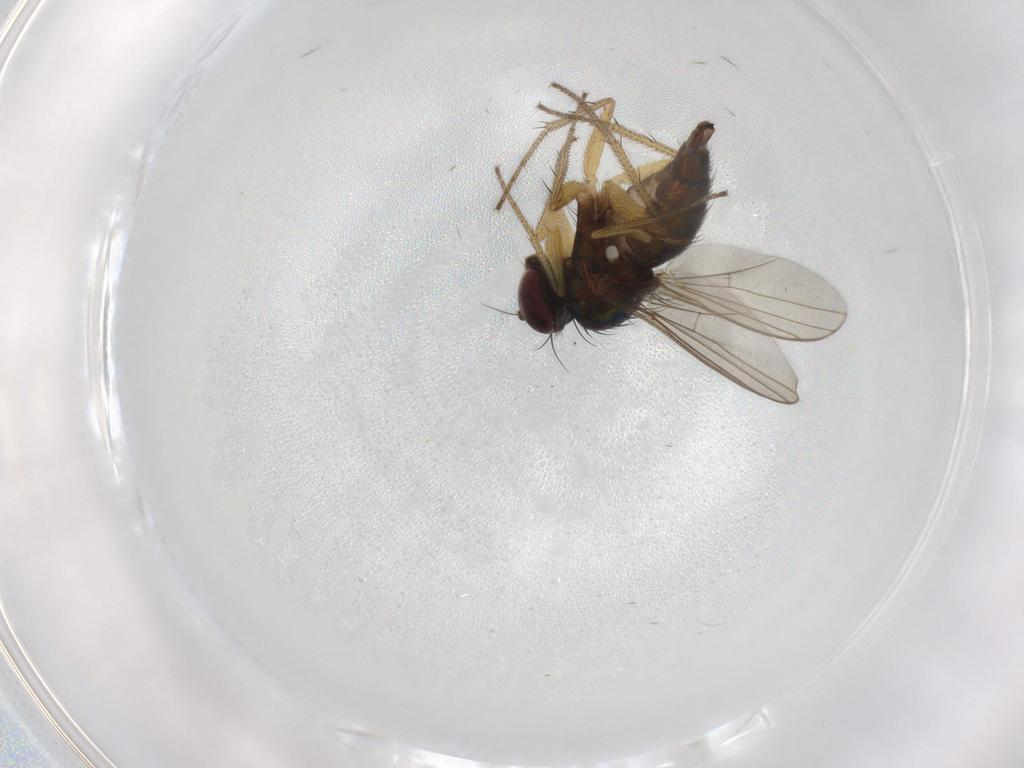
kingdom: Animalia
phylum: Arthropoda
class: Insecta
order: Diptera
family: Dolichopodidae
